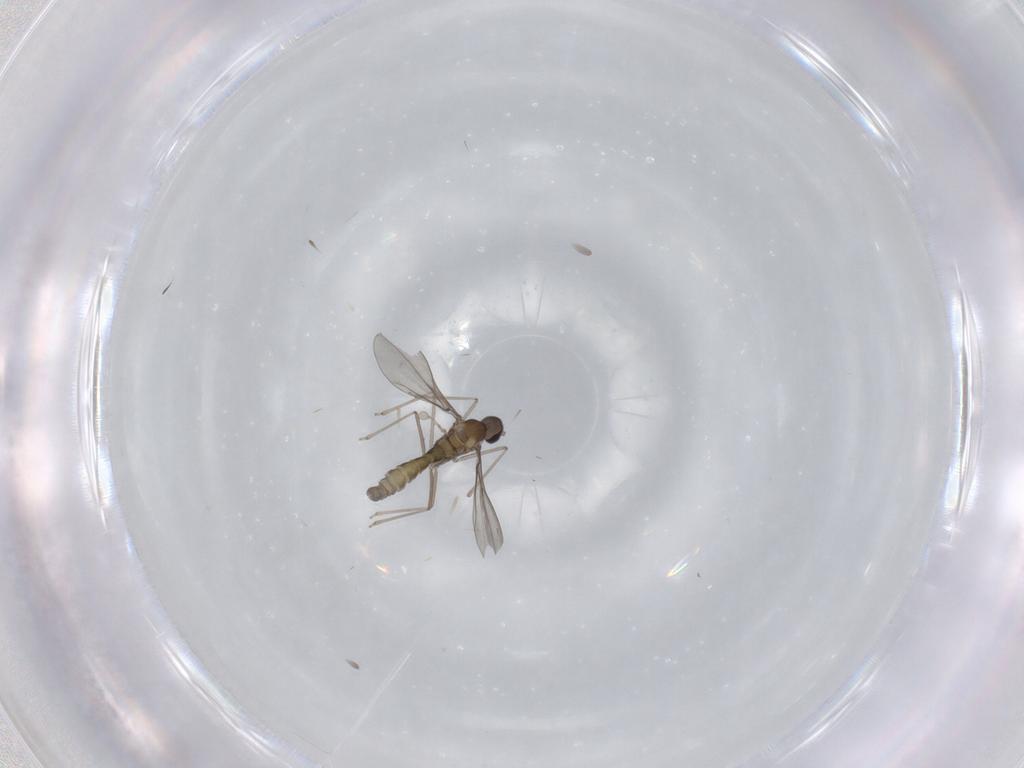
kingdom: Animalia
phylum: Arthropoda
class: Insecta
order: Diptera
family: Cecidomyiidae
